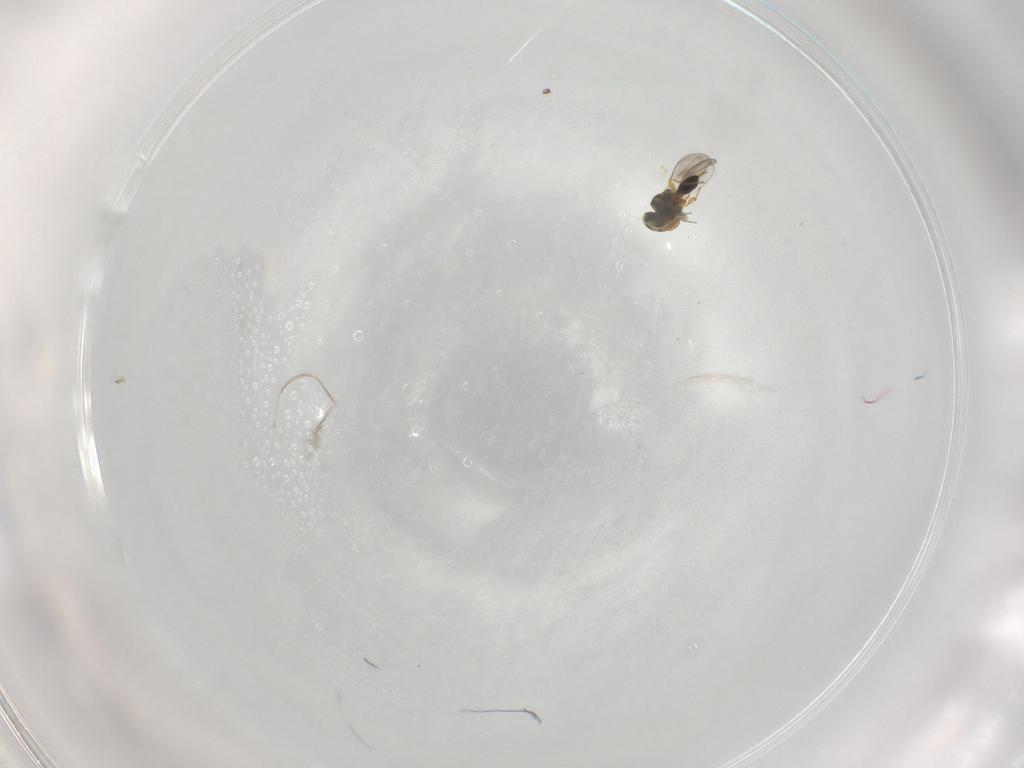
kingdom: Animalia
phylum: Arthropoda
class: Insecta
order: Hymenoptera
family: Platygastridae
